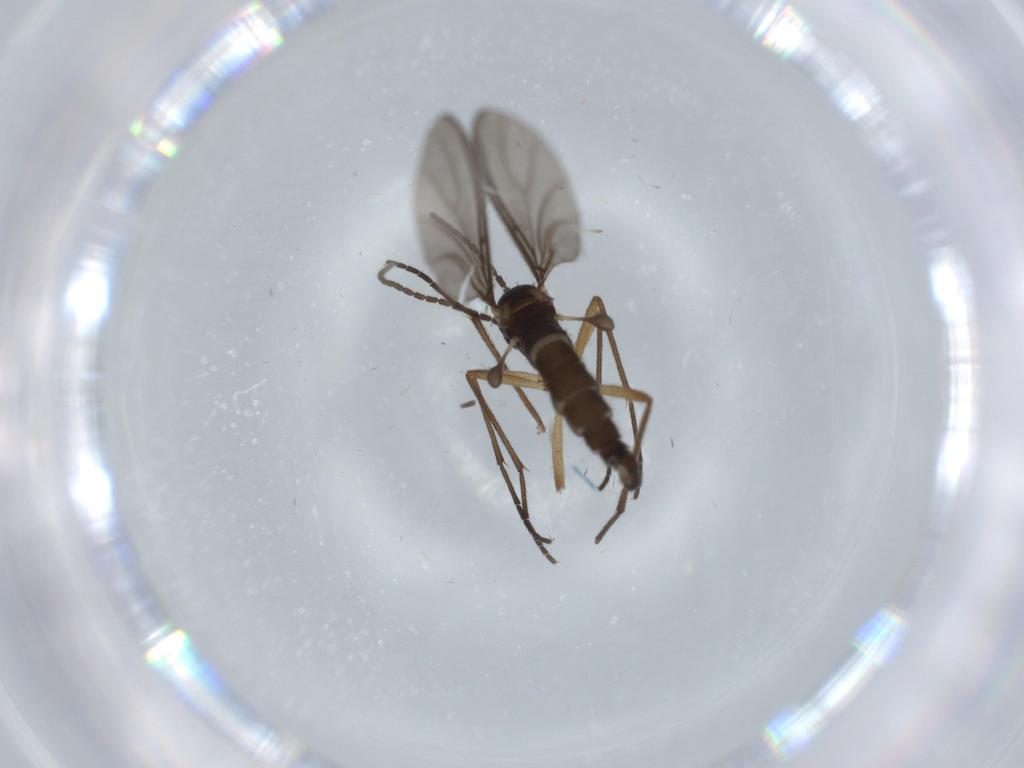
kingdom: Animalia
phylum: Arthropoda
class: Insecta
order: Diptera
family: Sciaridae
